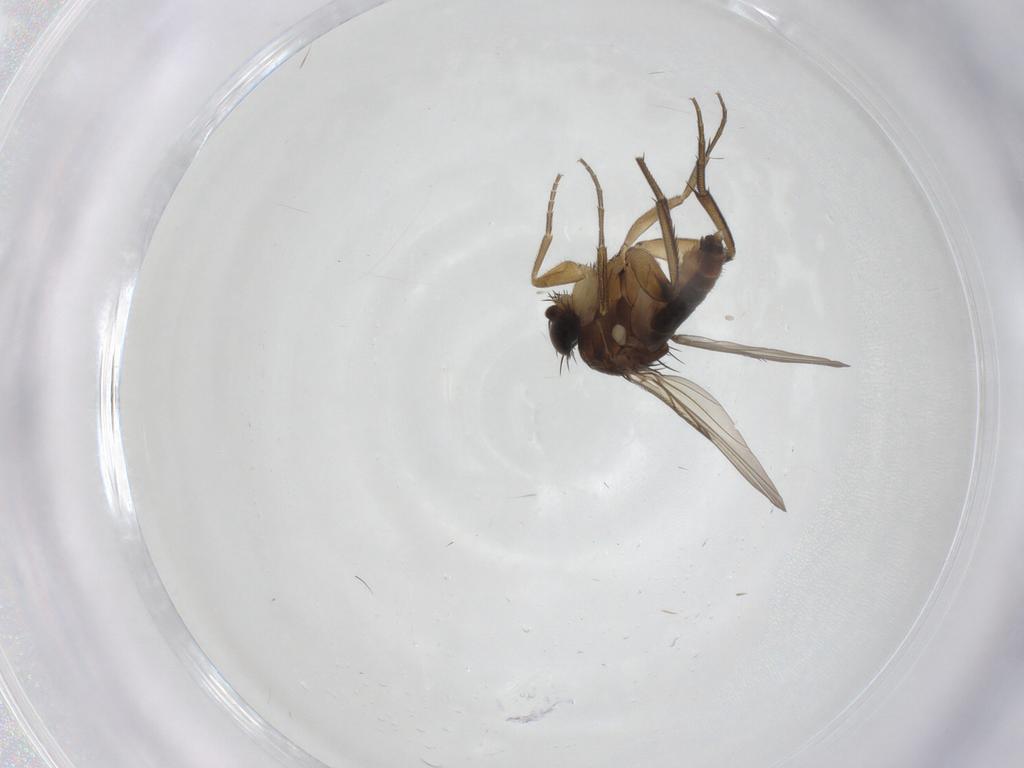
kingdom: Animalia
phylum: Arthropoda
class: Insecta
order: Diptera
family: Phoridae
